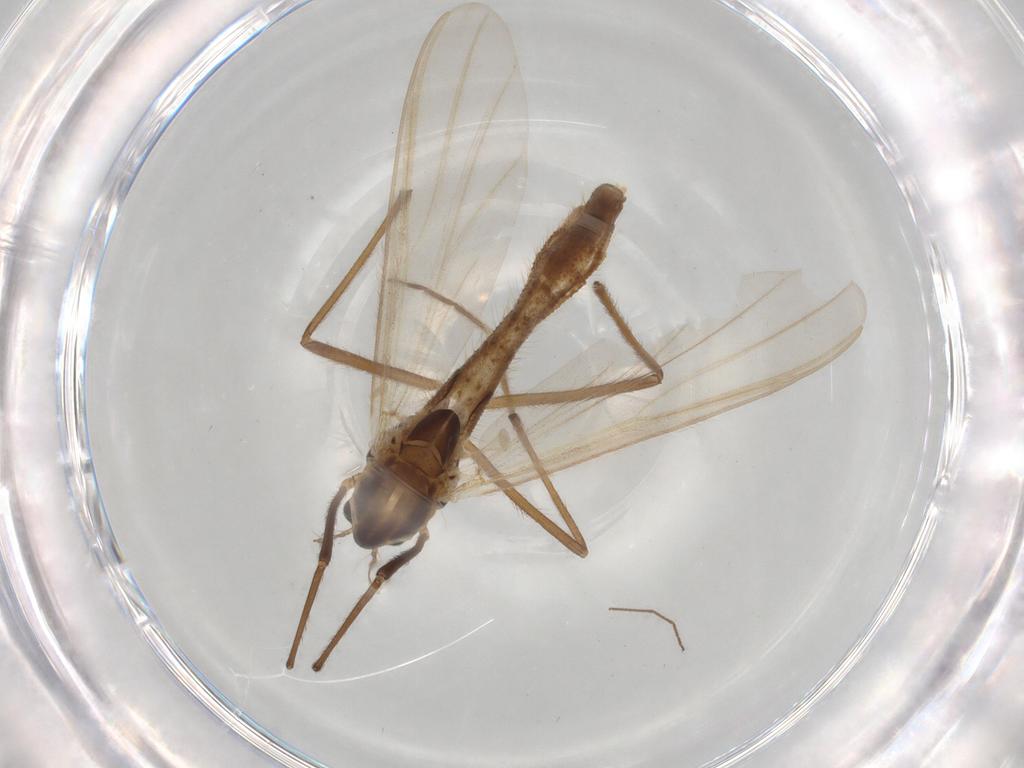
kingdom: Animalia
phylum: Arthropoda
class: Insecta
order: Diptera
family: Chironomidae
